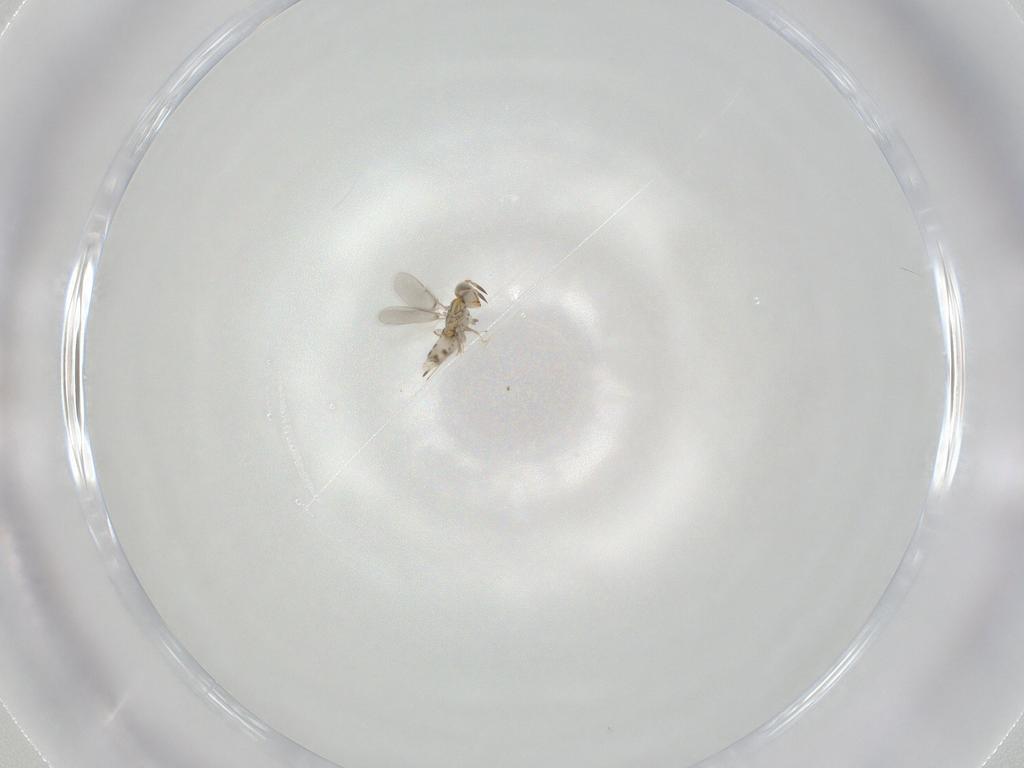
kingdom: Animalia
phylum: Arthropoda
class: Insecta
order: Hymenoptera
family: Aphelinidae
